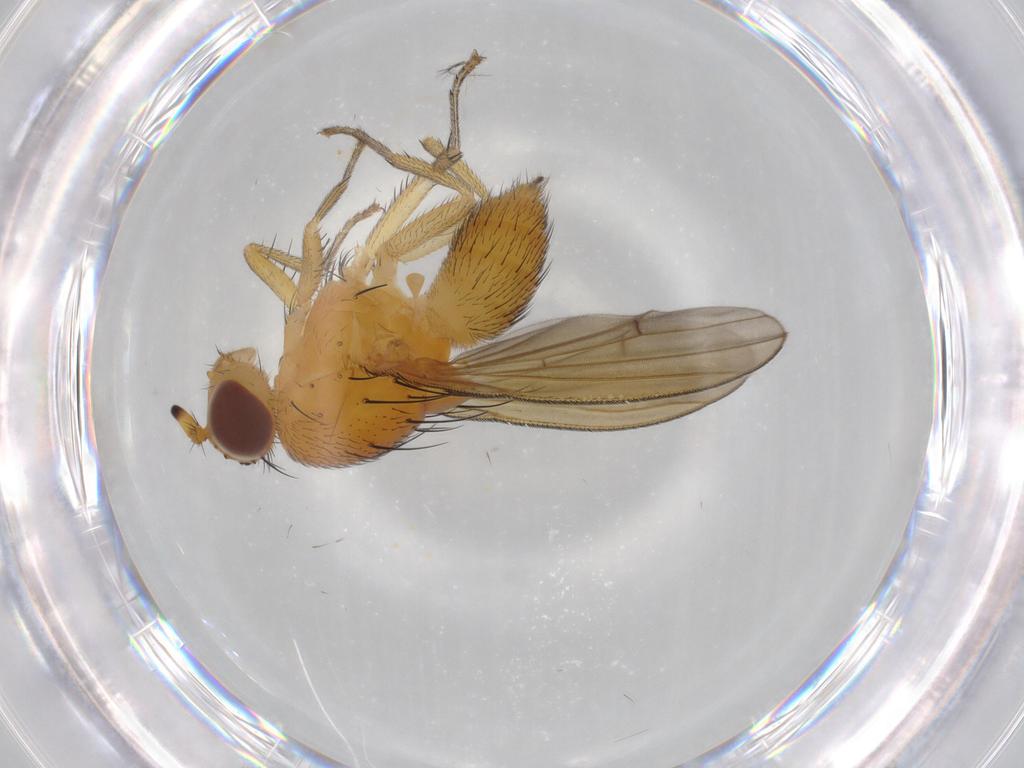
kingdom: Animalia
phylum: Arthropoda
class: Insecta
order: Diptera
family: Lauxaniidae
